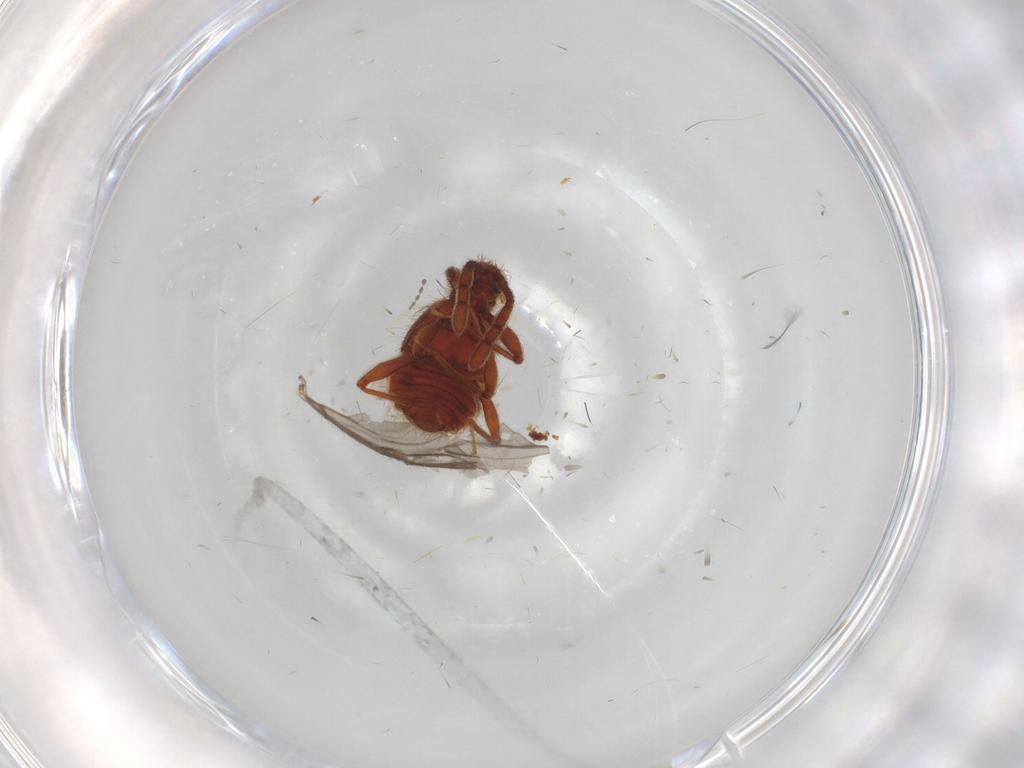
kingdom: Animalia
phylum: Arthropoda
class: Insecta
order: Coleoptera
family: Staphylinidae
